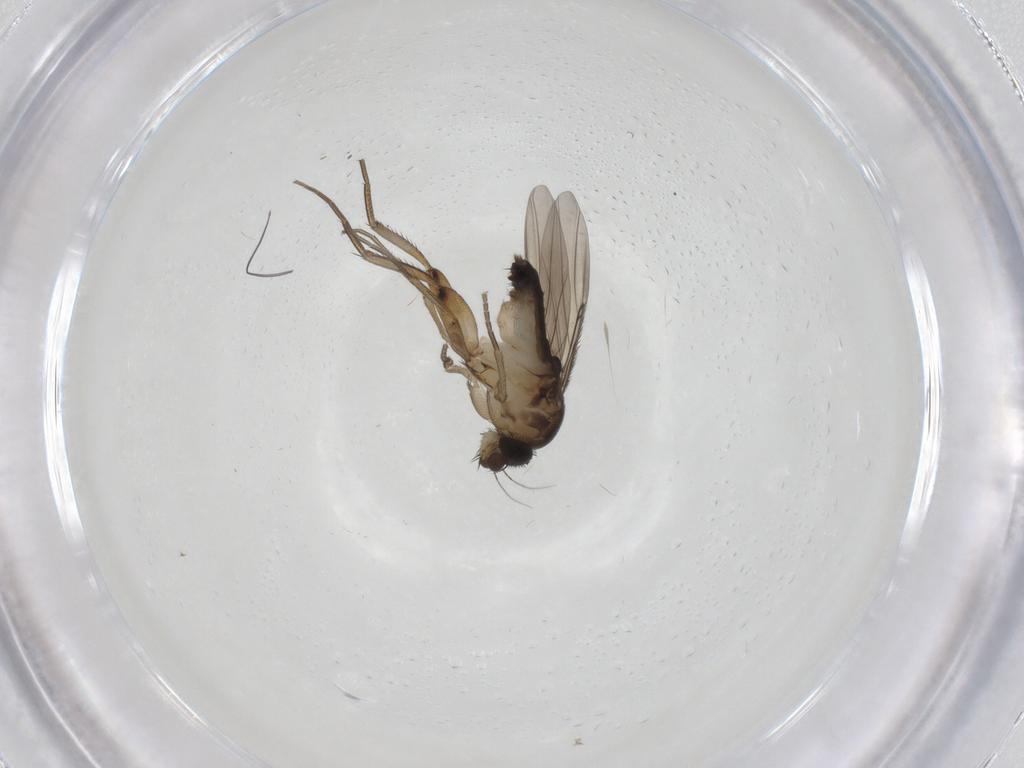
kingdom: Animalia
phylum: Arthropoda
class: Insecta
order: Diptera
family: Phoridae
